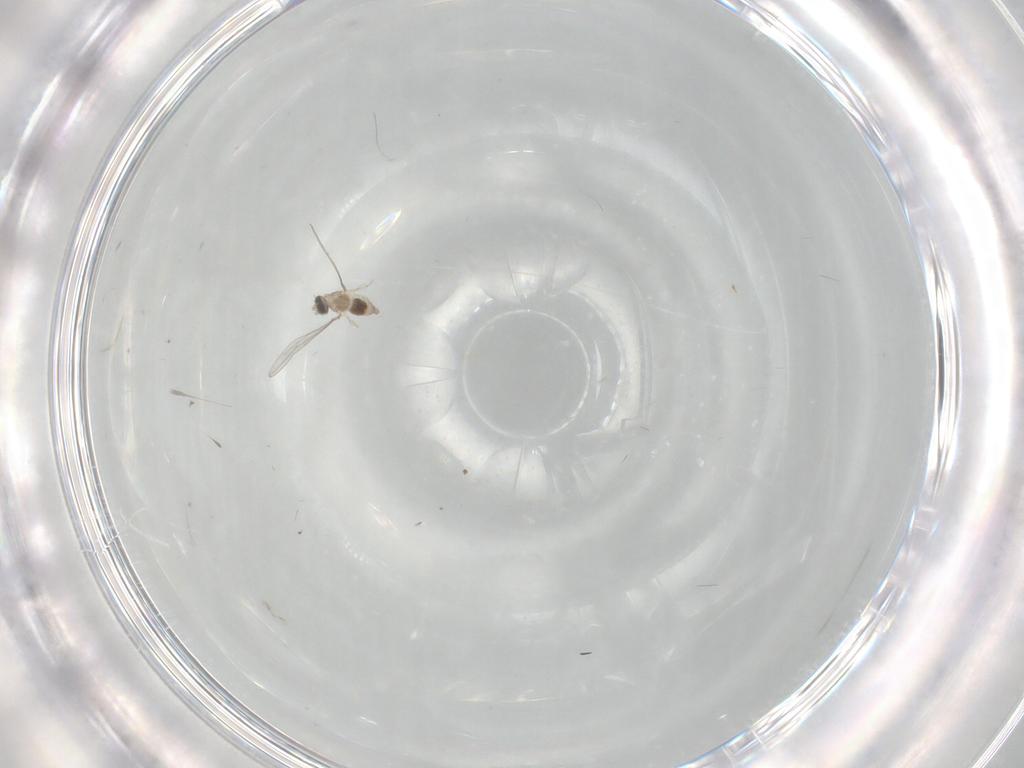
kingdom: Animalia
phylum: Arthropoda
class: Insecta
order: Diptera
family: Cecidomyiidae
